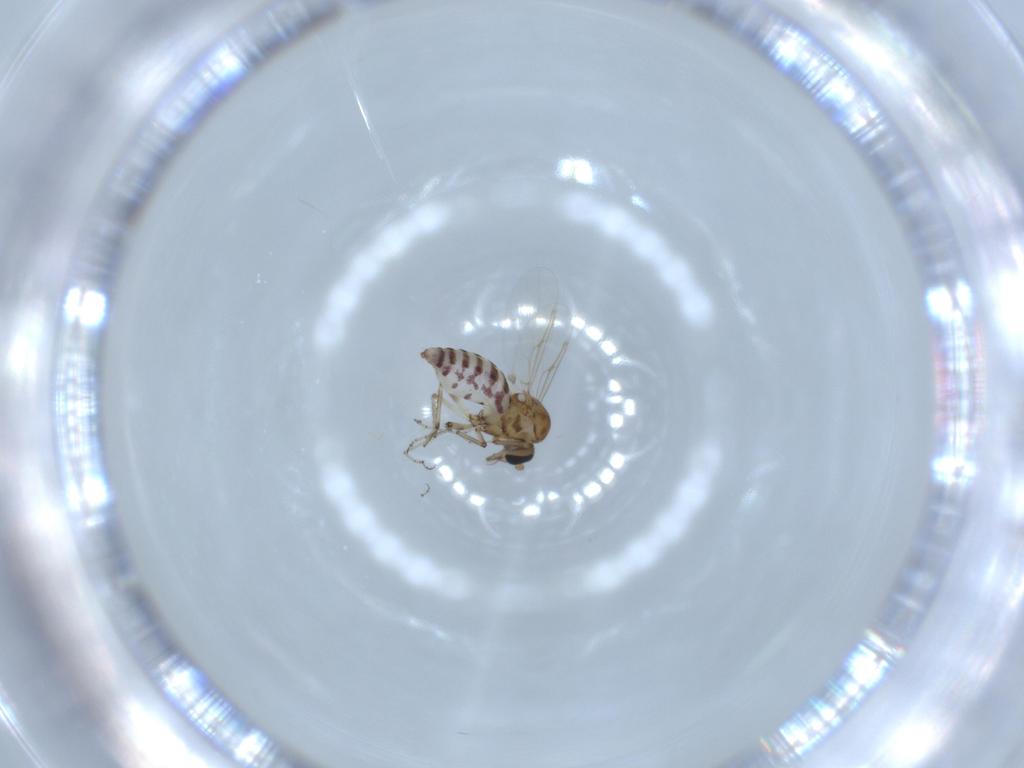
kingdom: Animalia
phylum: Arthropoda
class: Insecta
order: Diptera
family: Ceratopogonidae
